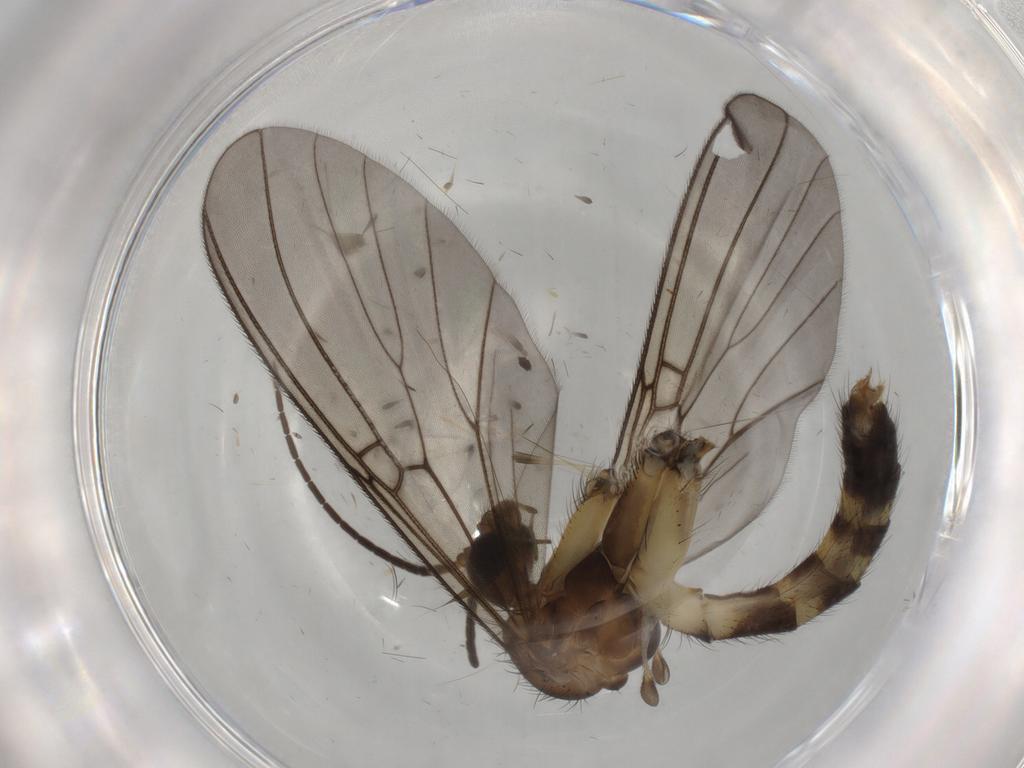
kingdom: Animalia
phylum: Arthropoda
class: Insecta
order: Diptera
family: Mycetophilidae
